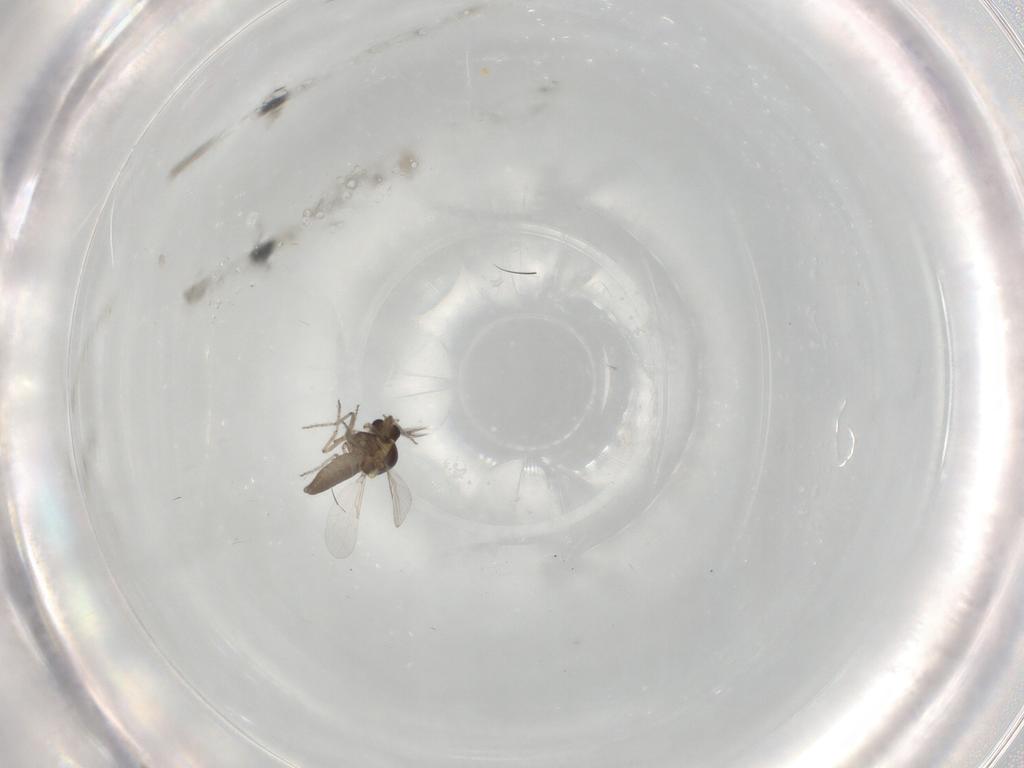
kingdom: Animalia
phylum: Arthropoda
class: Insecta
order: Diptera
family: Ceratopogonidae
